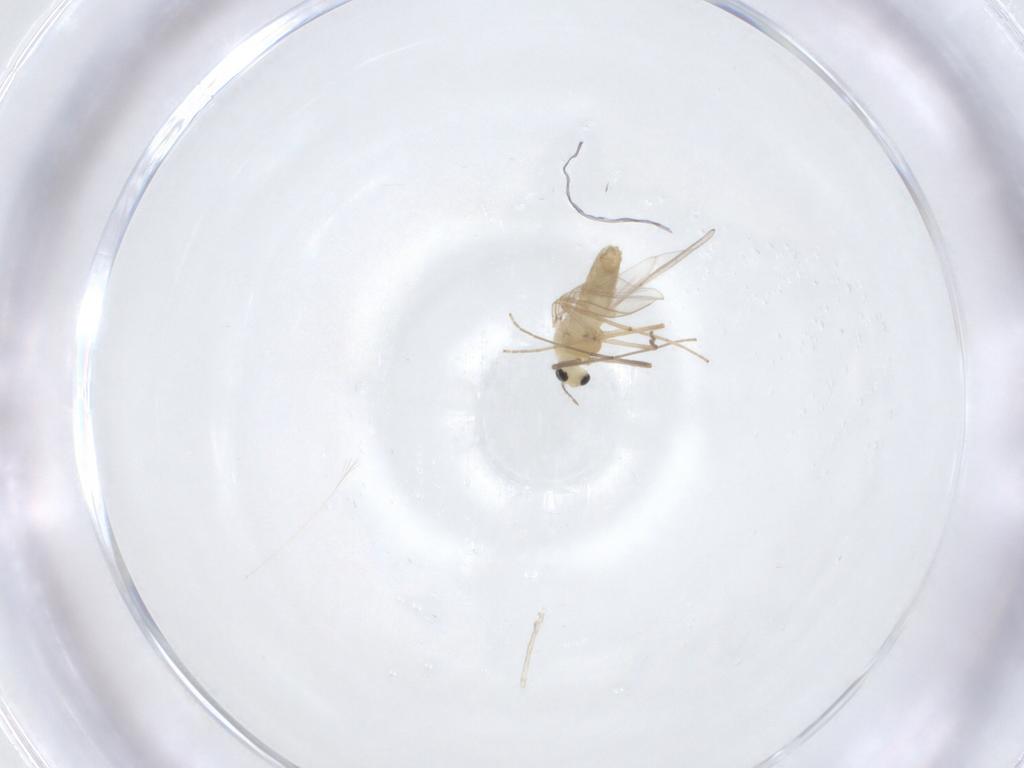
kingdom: Animalia
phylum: Arthropoda
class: Insecta
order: Diptera
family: Chironomidae
